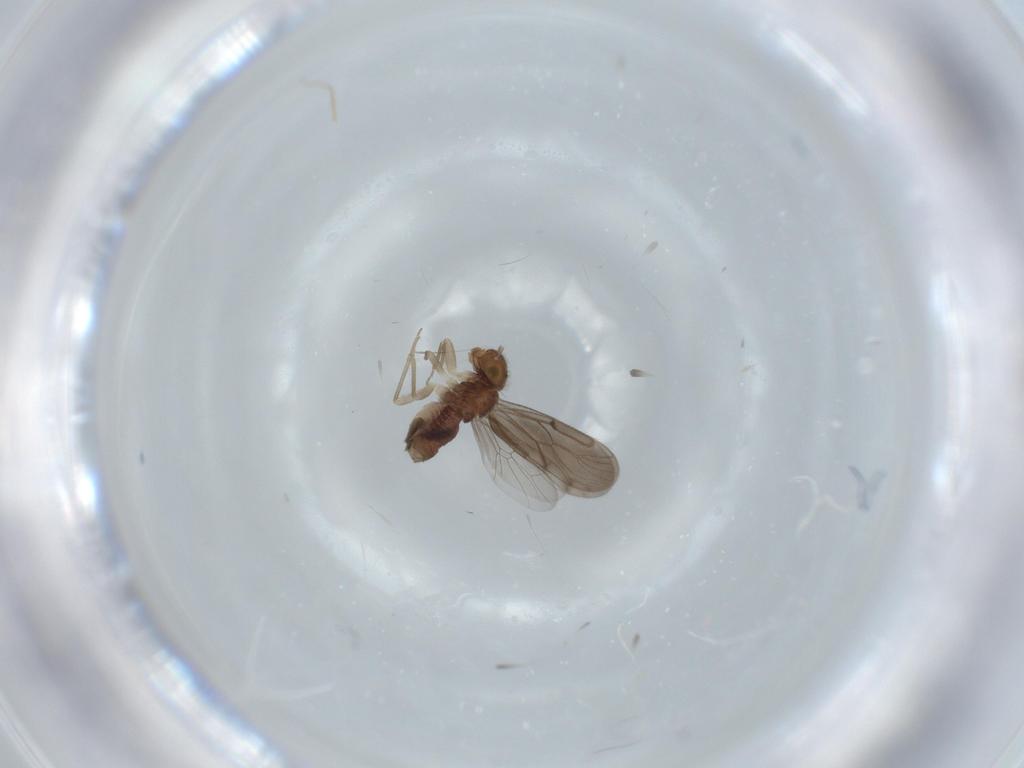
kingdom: Animalia
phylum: Arthropoda
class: Insecta
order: Psocodea
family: Ectopsocidae
